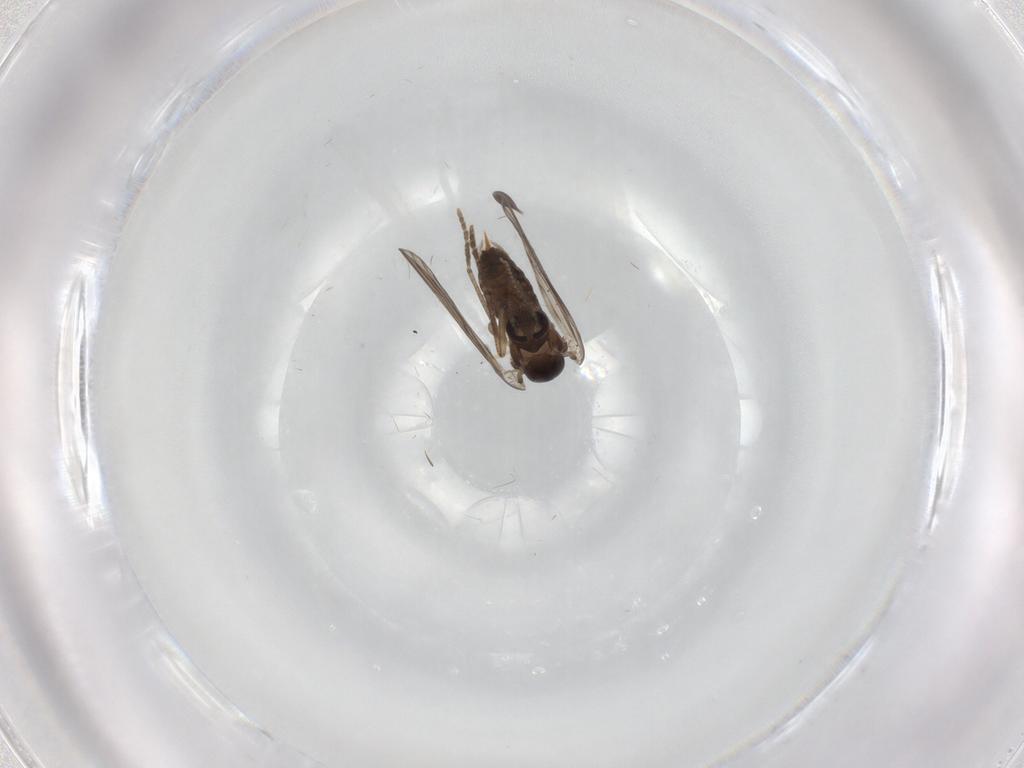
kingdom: Animalia
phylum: Arthropoda
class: Insecta
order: Diptera
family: Psychodidae
